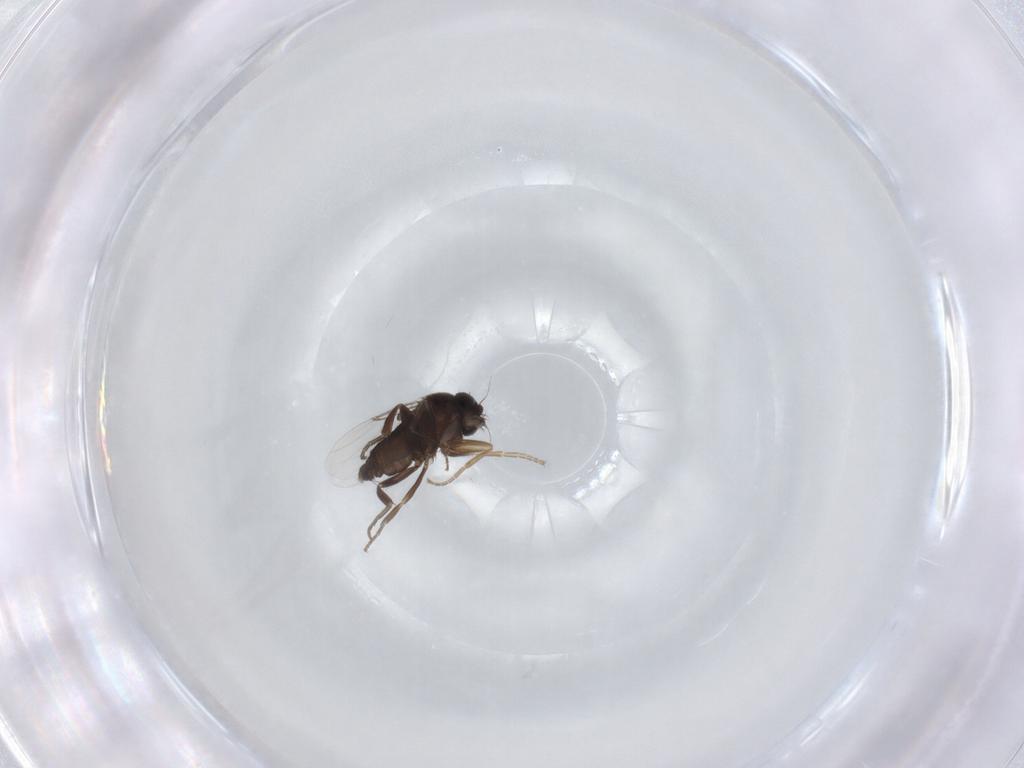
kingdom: Animalia
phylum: Arthropoda
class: Insecta
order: Diptera
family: Phoridae
